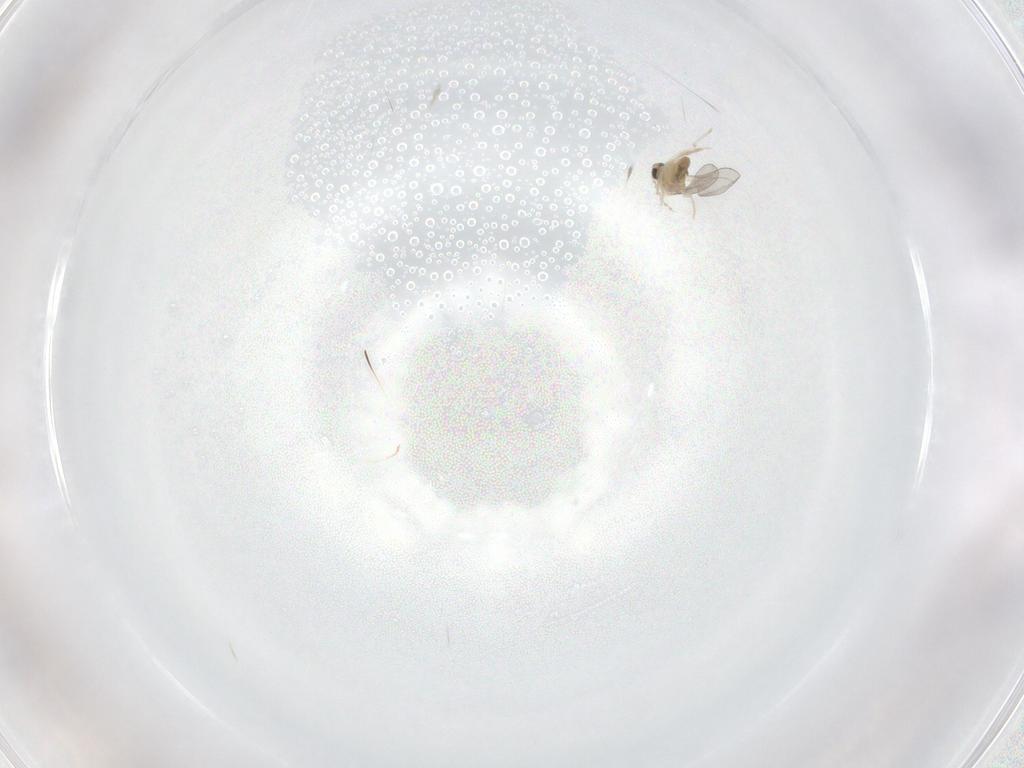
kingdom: Animalia
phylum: Arthropoda
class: Insecta
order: Diptera
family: Cecidomyiidae
